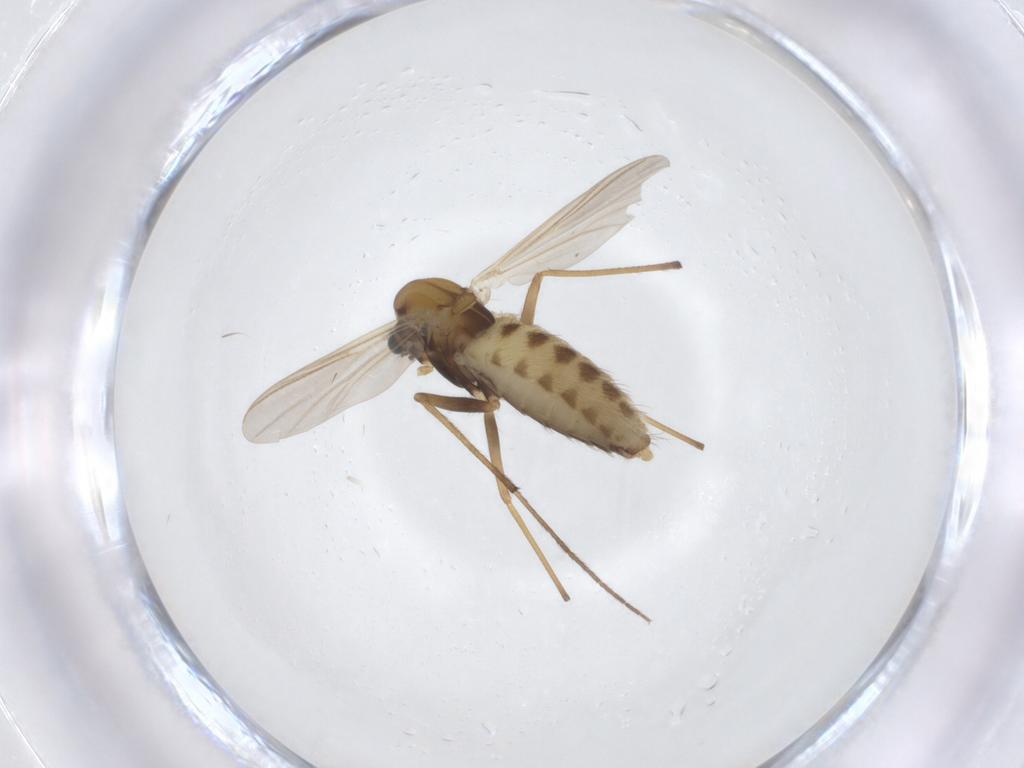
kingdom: Animalia
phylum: Arthropoda
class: Insecta
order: Diptera
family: Chironomidae
